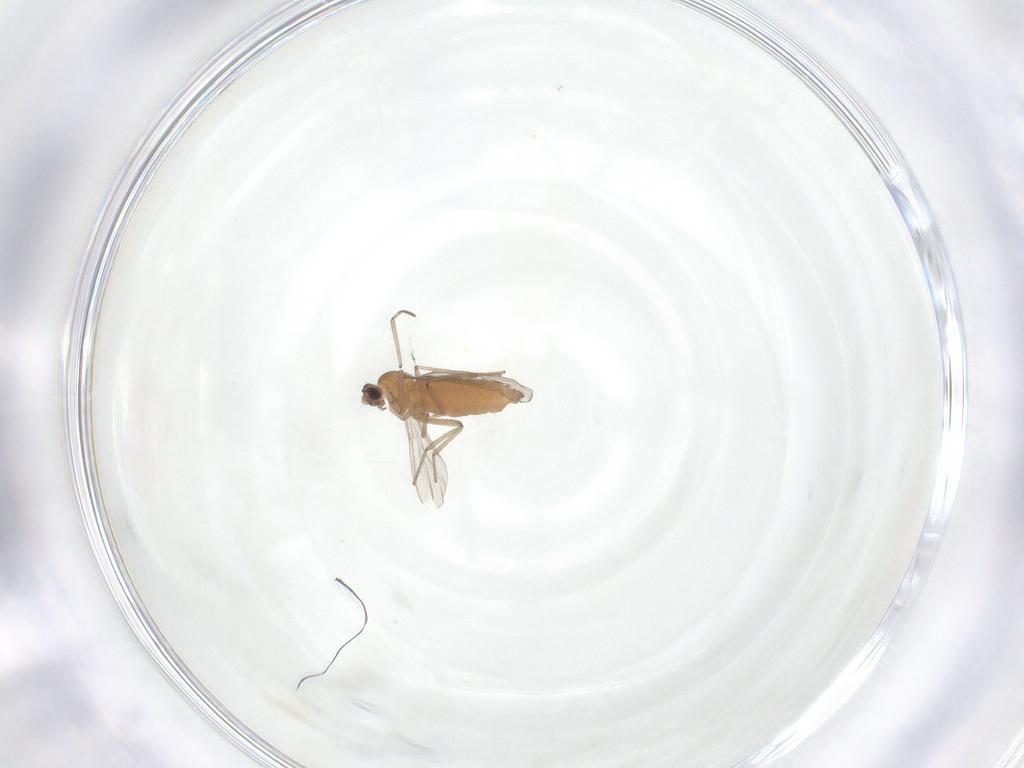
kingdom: Animalia
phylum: Arthropoda
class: Insecta
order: Diptera
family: Cecidomyiidae
